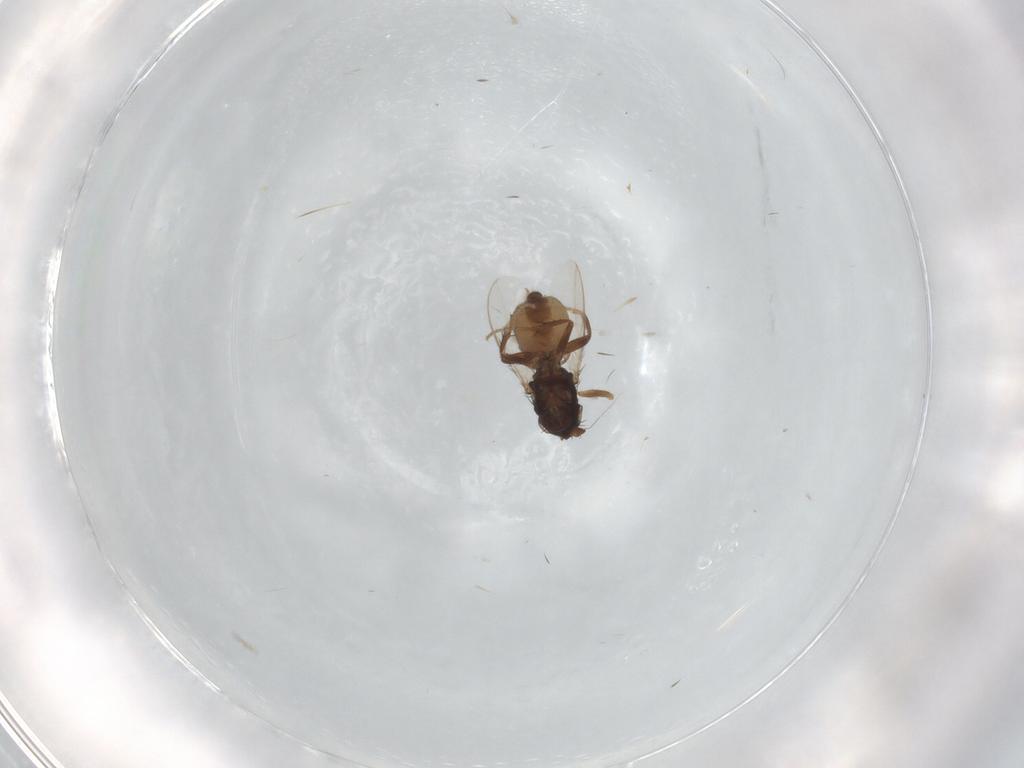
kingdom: Animalia
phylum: Arthropoda
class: Insecta
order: Diptera
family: Sphaeroceridae
